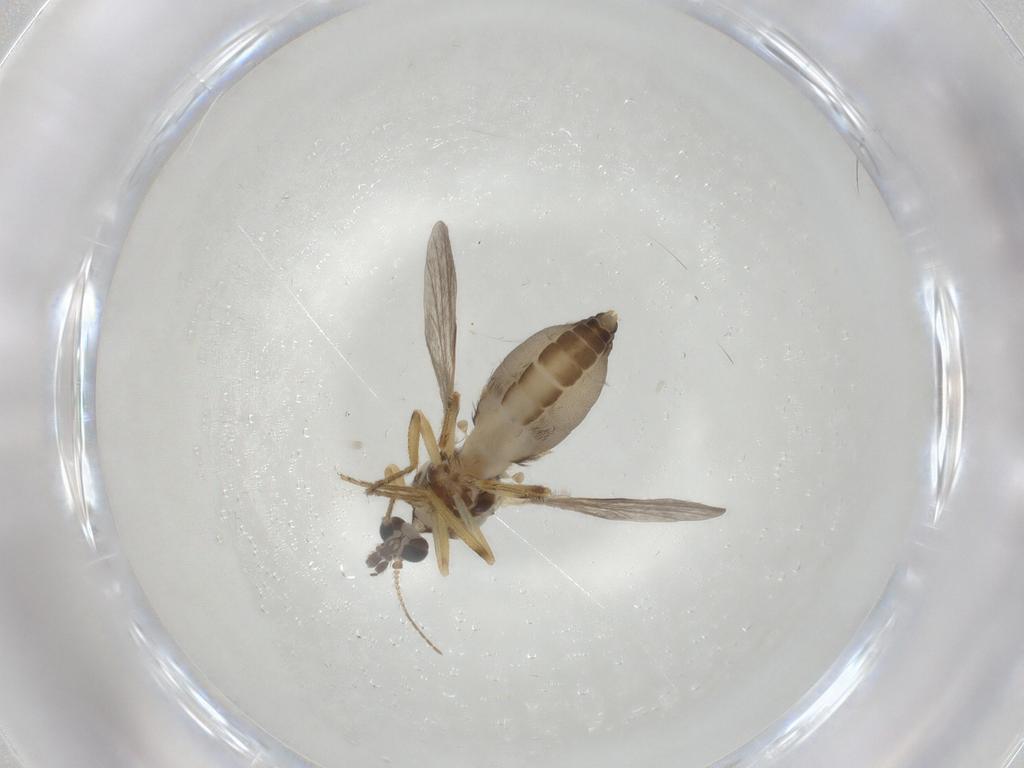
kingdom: Animalia
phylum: Arthropoda
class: Insecta
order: Diptera
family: Ceratopogonidae
